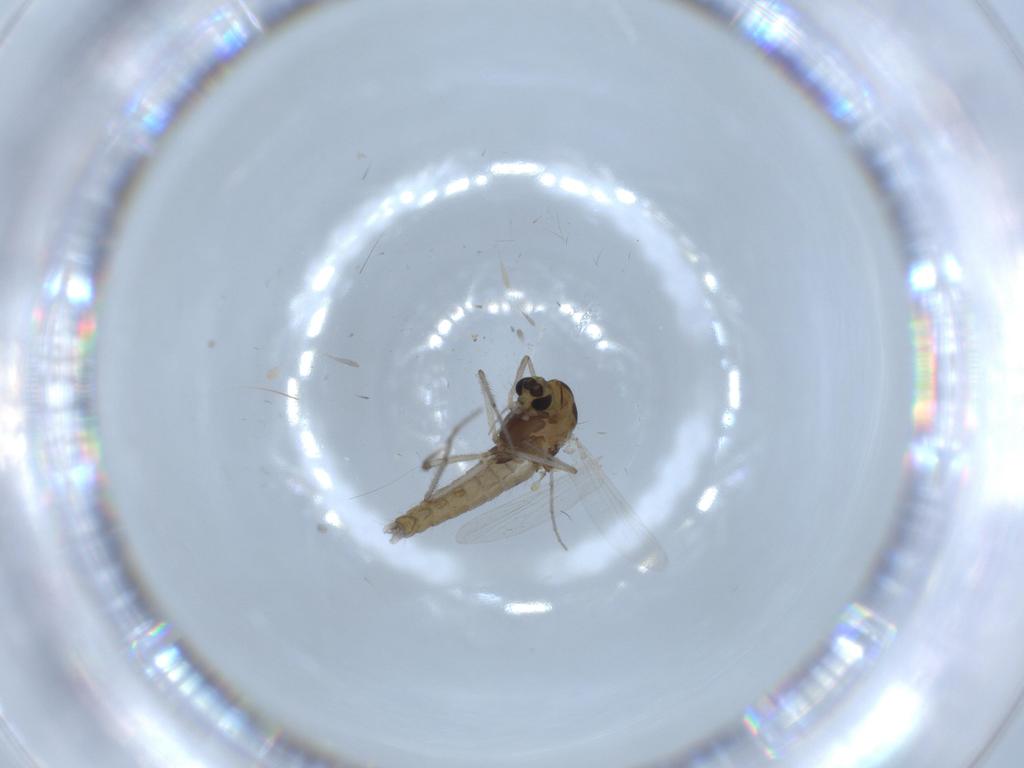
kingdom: Animalia
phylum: Arthropoda
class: Insecta
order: Diptera
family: Sciaridae
